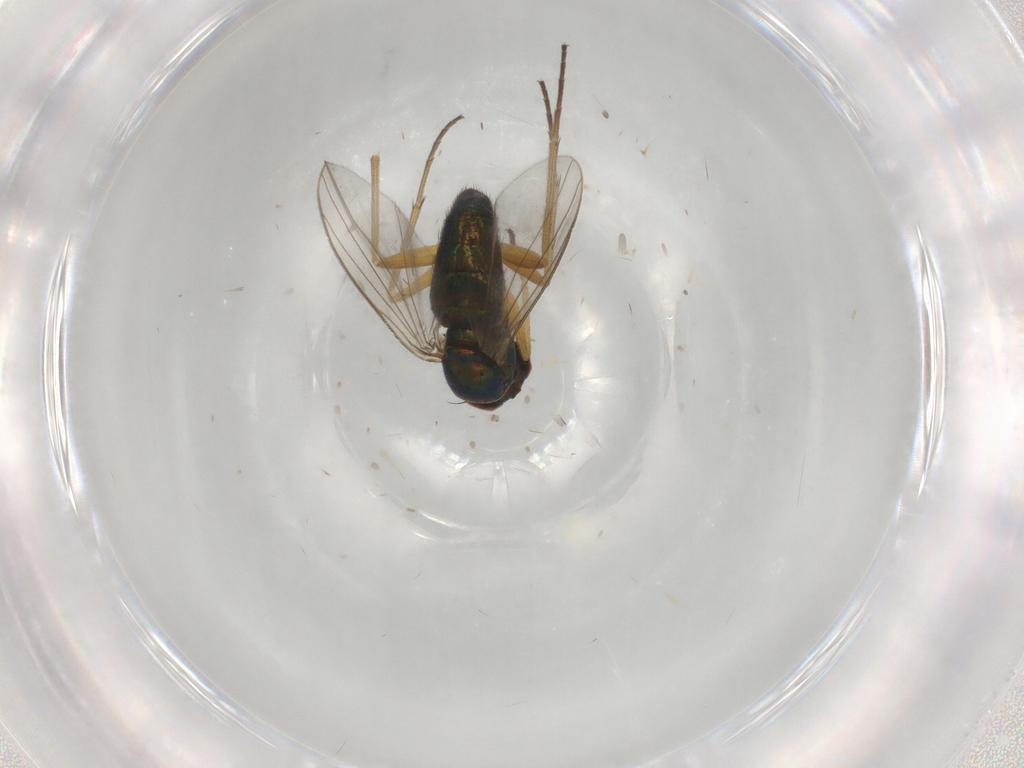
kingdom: Animalia
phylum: Arthropoda
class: Insecta
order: Diptera
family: Dolichopodidae
